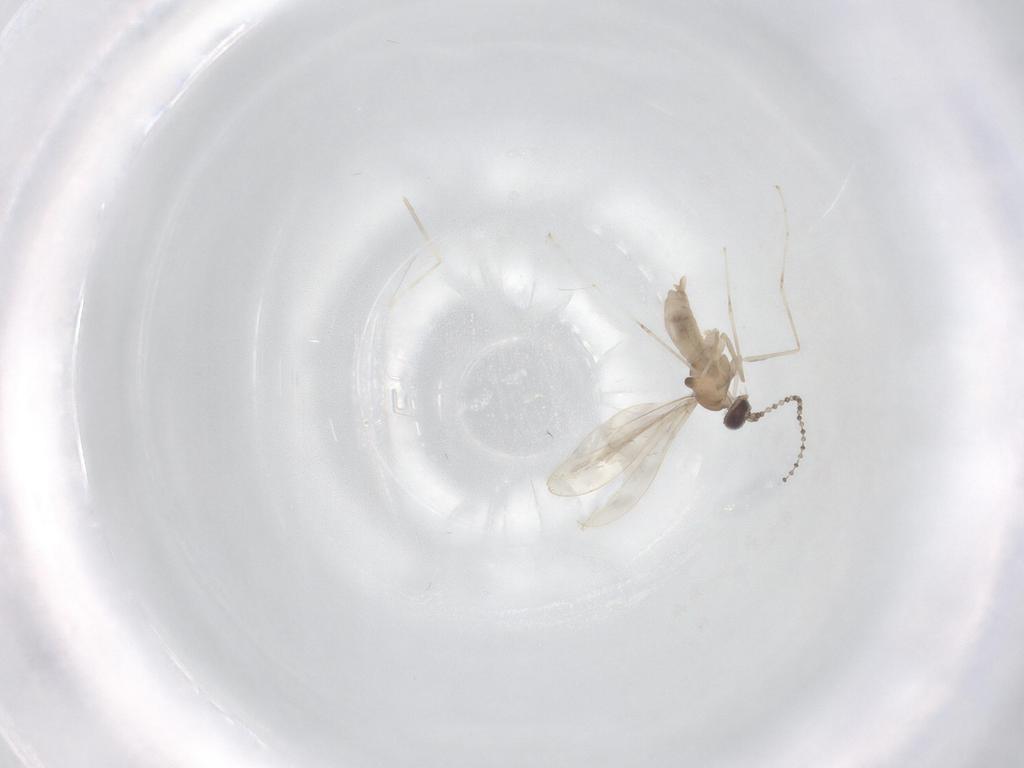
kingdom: Animalia
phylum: Arthropoda
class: Insecta
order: Diptera
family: Cecidomyiidae
